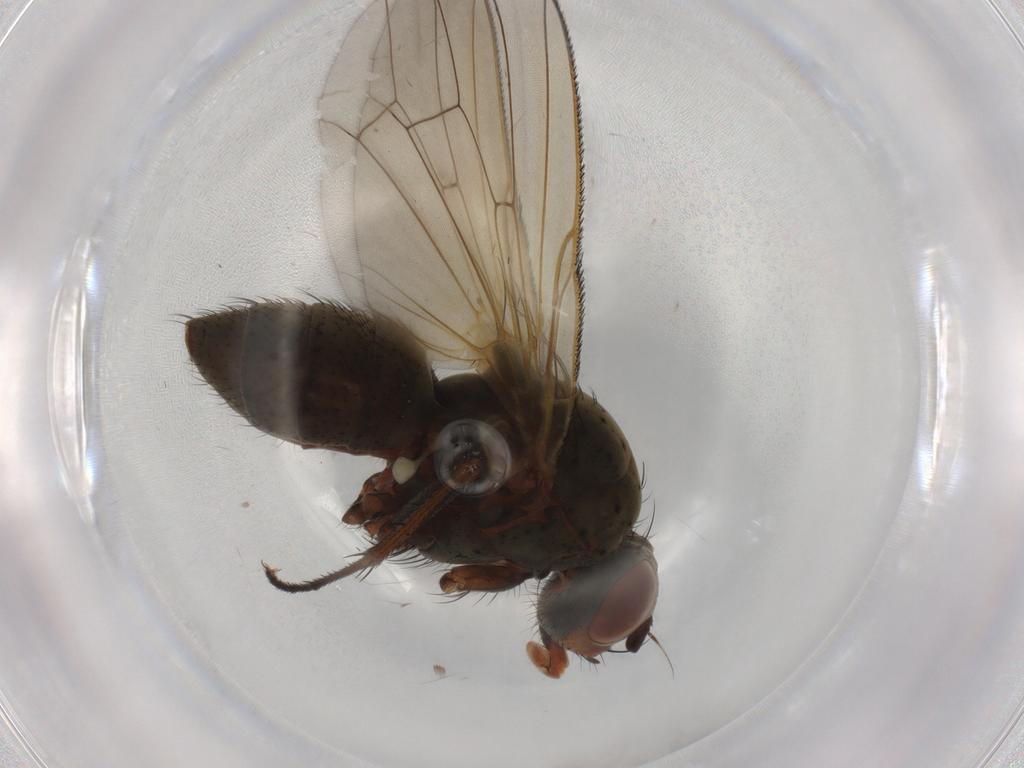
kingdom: Animalia
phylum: Arthropoda
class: Insecta
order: Diptera
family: Anthomyiidae
